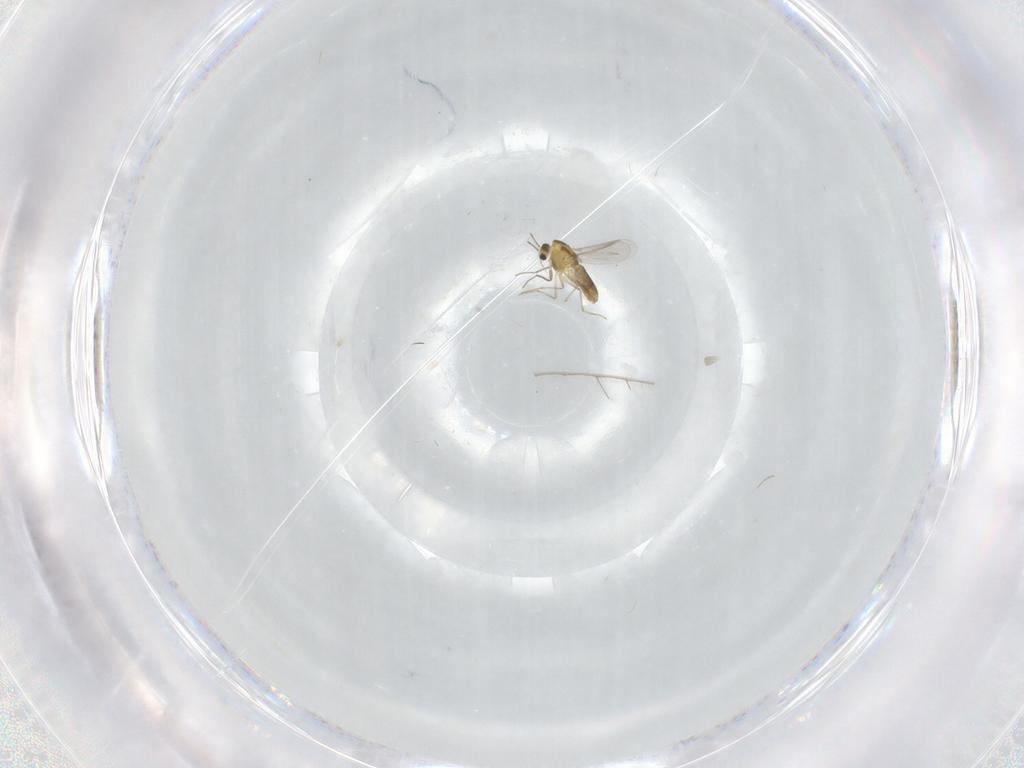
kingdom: Animalia
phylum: Arthropoda
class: Insecta
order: Diptera
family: Chironomidae
